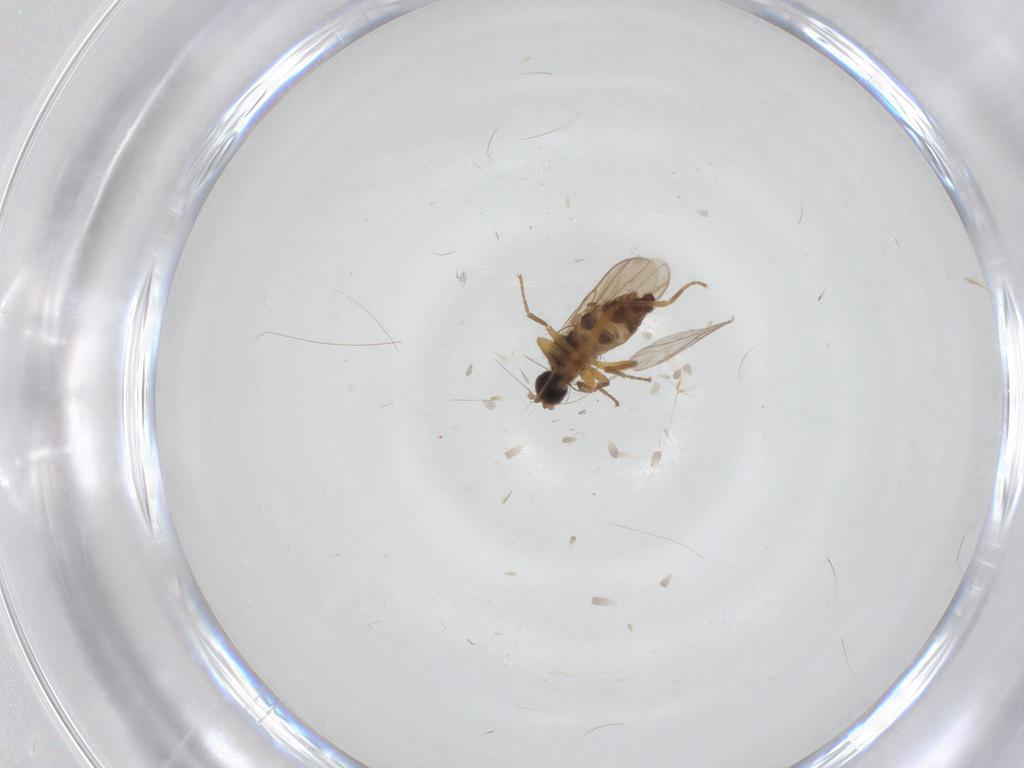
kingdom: Animalia
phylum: Arthropoda
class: Insecta
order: Diptera
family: Hybotidae
